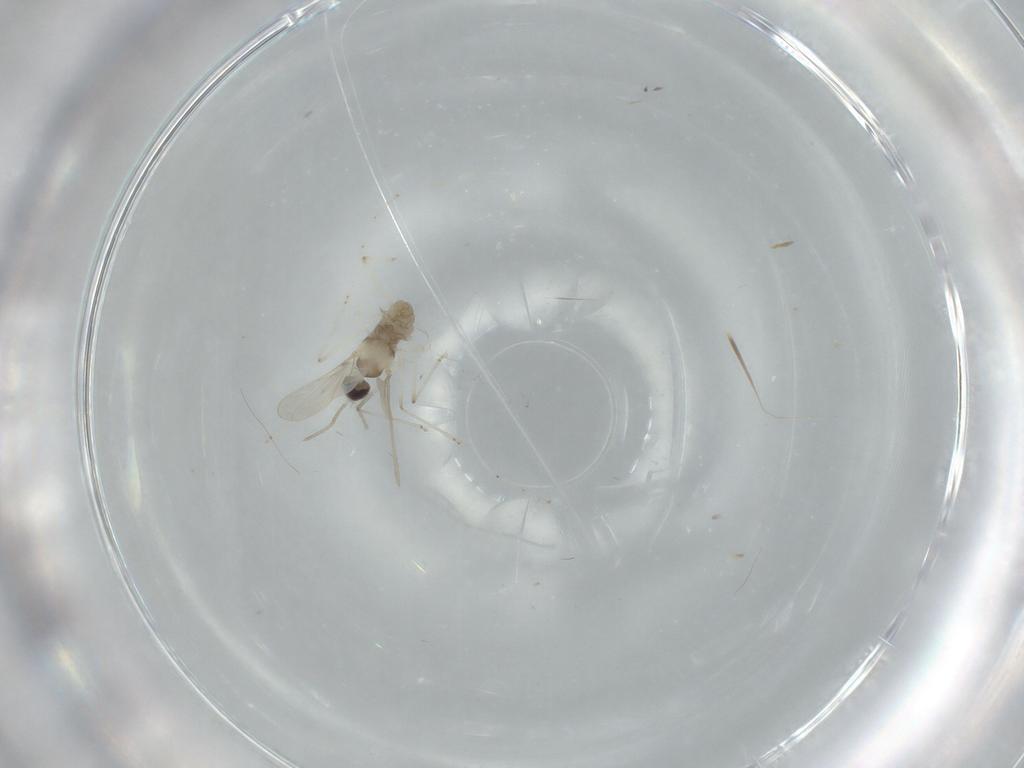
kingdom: Animalia
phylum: Arthropoda
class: Insecta
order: Diptera
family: Cecidomyiidae
